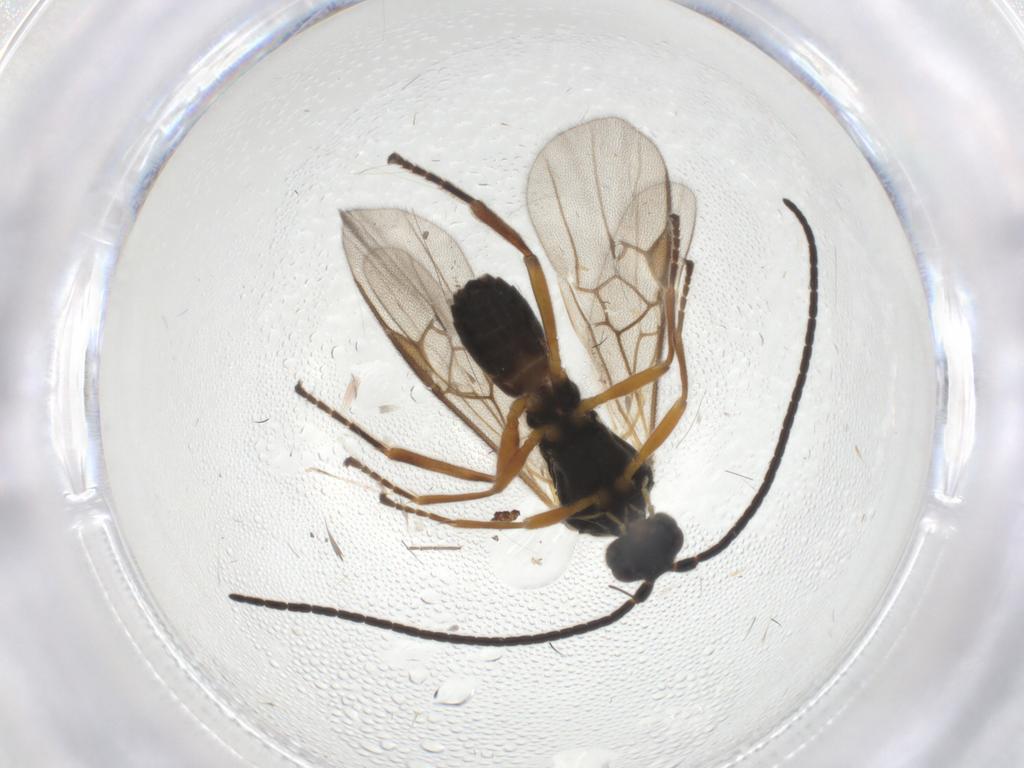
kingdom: Animalia
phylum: Arthropoda
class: Insecta
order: Hymenoptera
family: Braconidae
